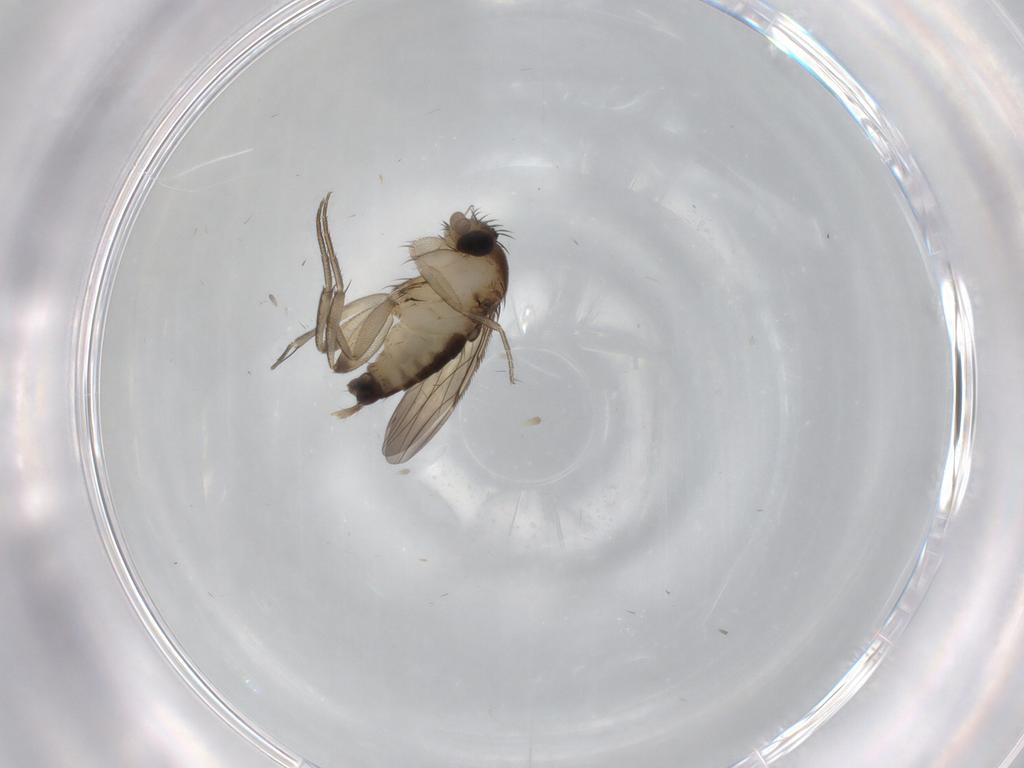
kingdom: Animalia
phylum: Arthropoda
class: Insecta
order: Diptera
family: Phoridae
